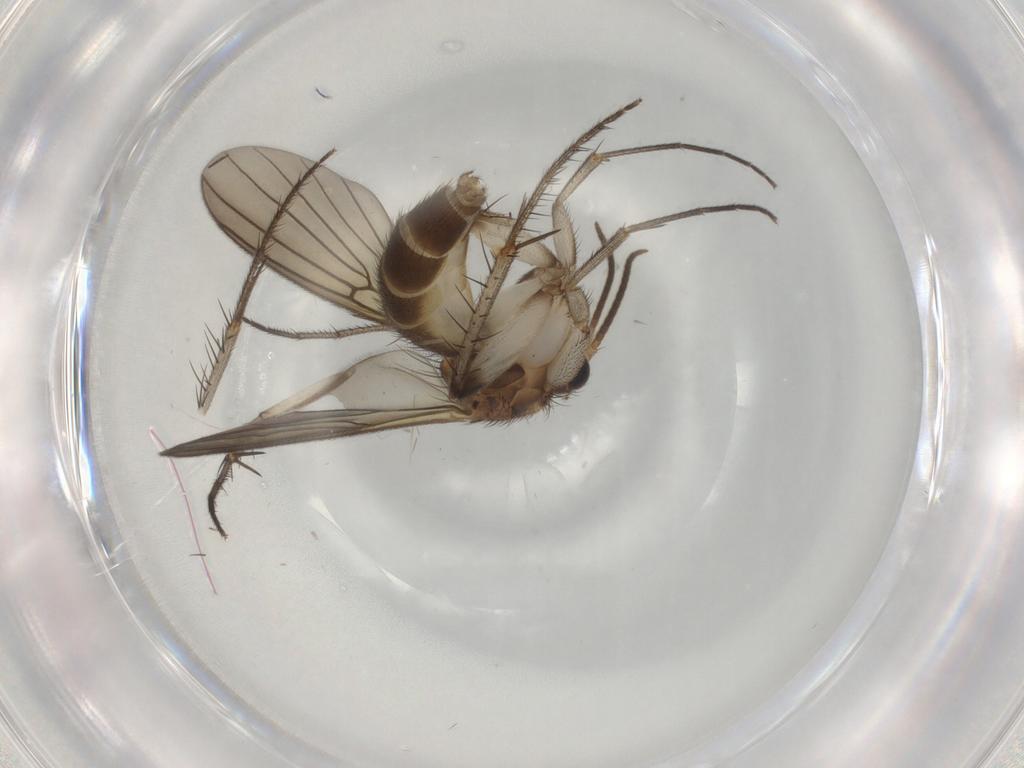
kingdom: Animalia
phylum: Arthropoda
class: Insecta
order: Diptera
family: Mycetophilidae
